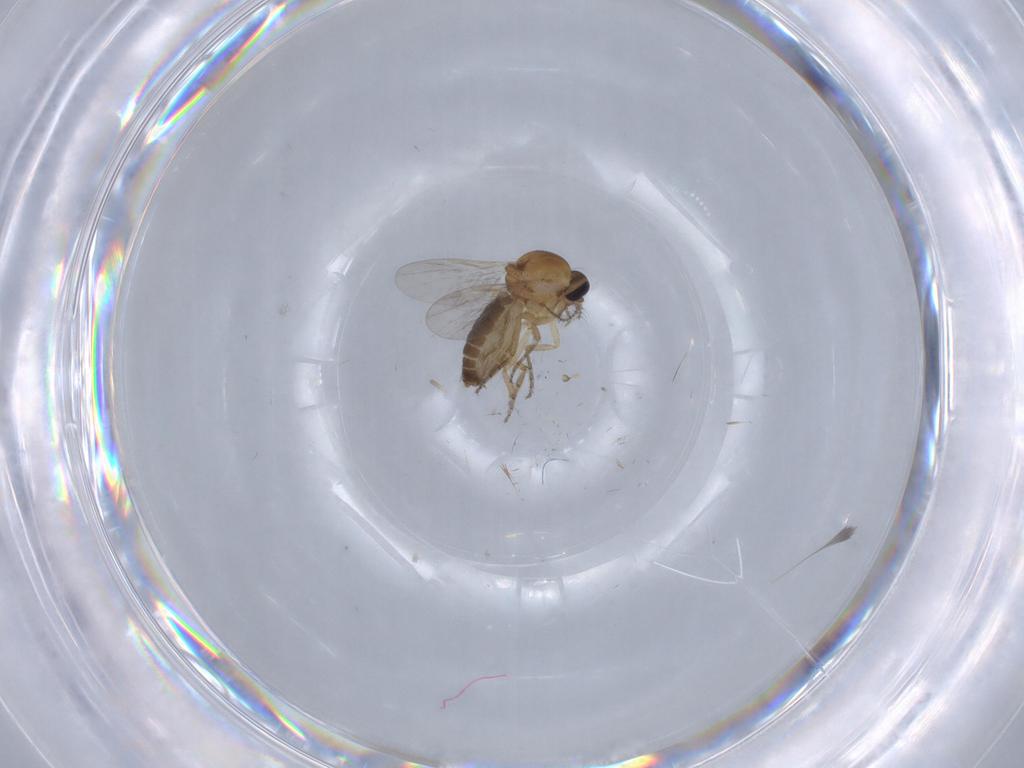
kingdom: Animalia
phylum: Arthropoda
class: Insecta
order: Diptera
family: Ceratopogonidae
